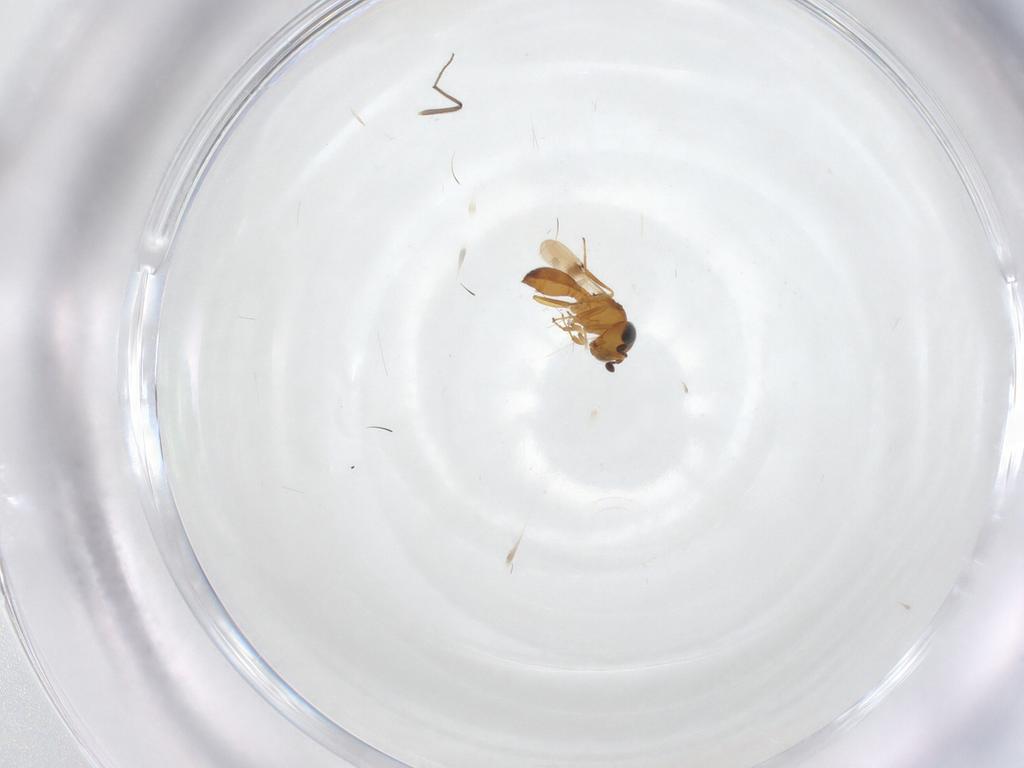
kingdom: Animalia
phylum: Arthropoda
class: Arachnida
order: Araneae
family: Pholcidae
